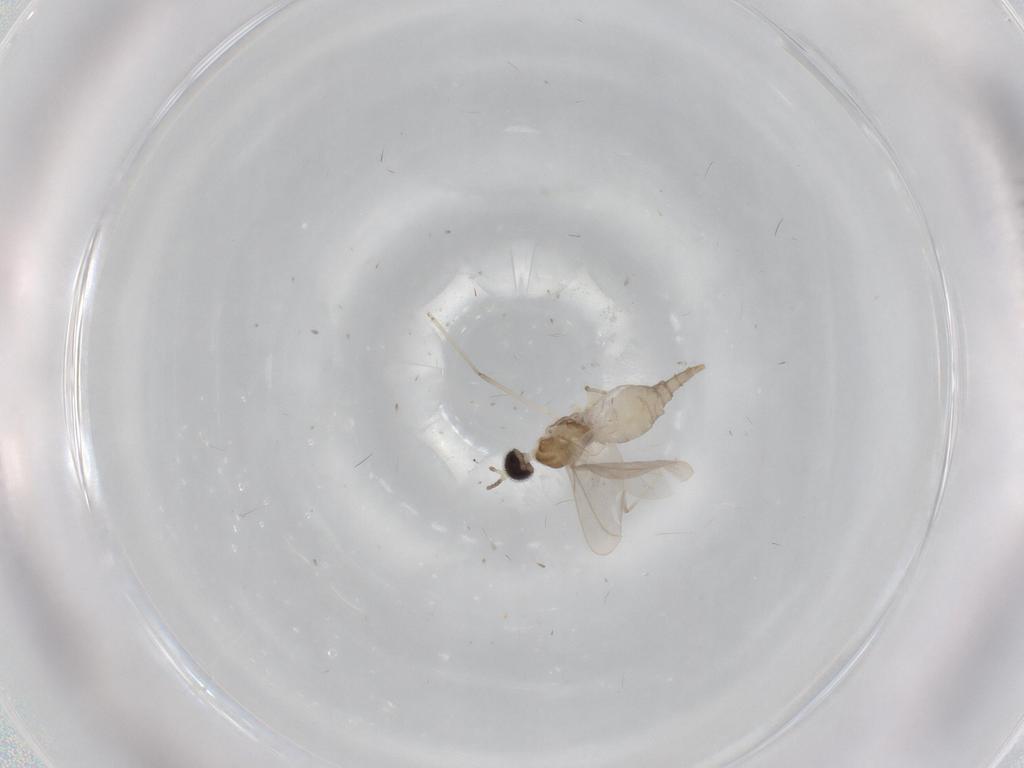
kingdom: Animalia
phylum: Arthropoda
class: Insecta
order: Diptera
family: Cecidomyiidae
